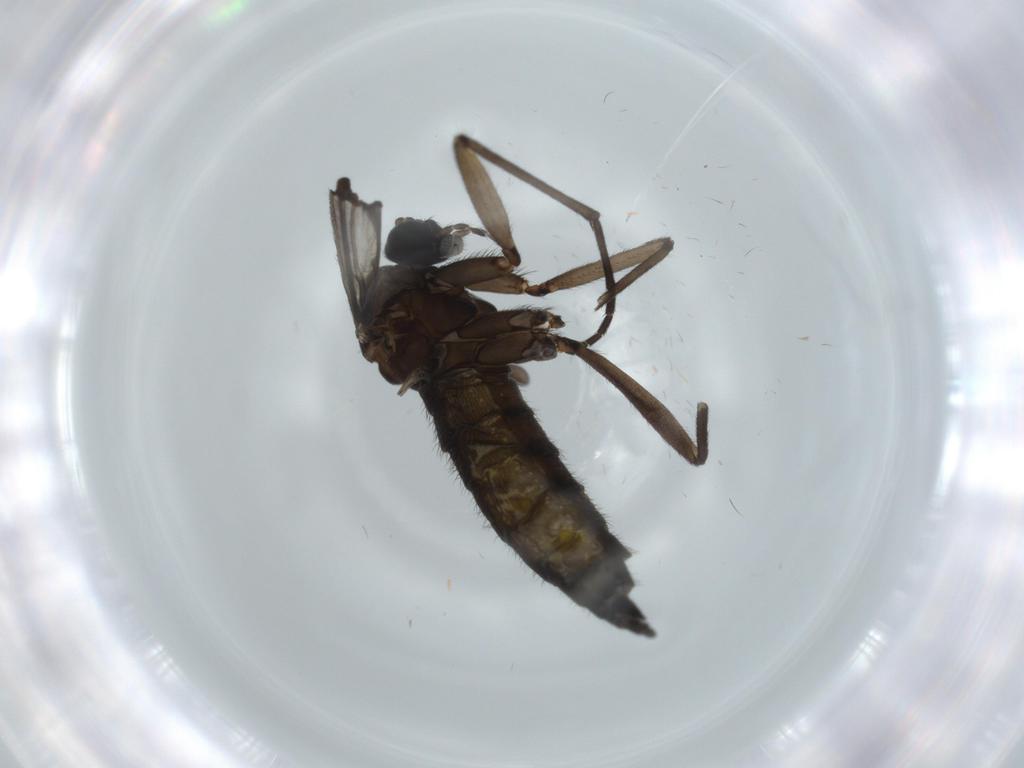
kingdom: Animalia
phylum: Arthropoda
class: Insecta
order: Diptera
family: Sciaridae
